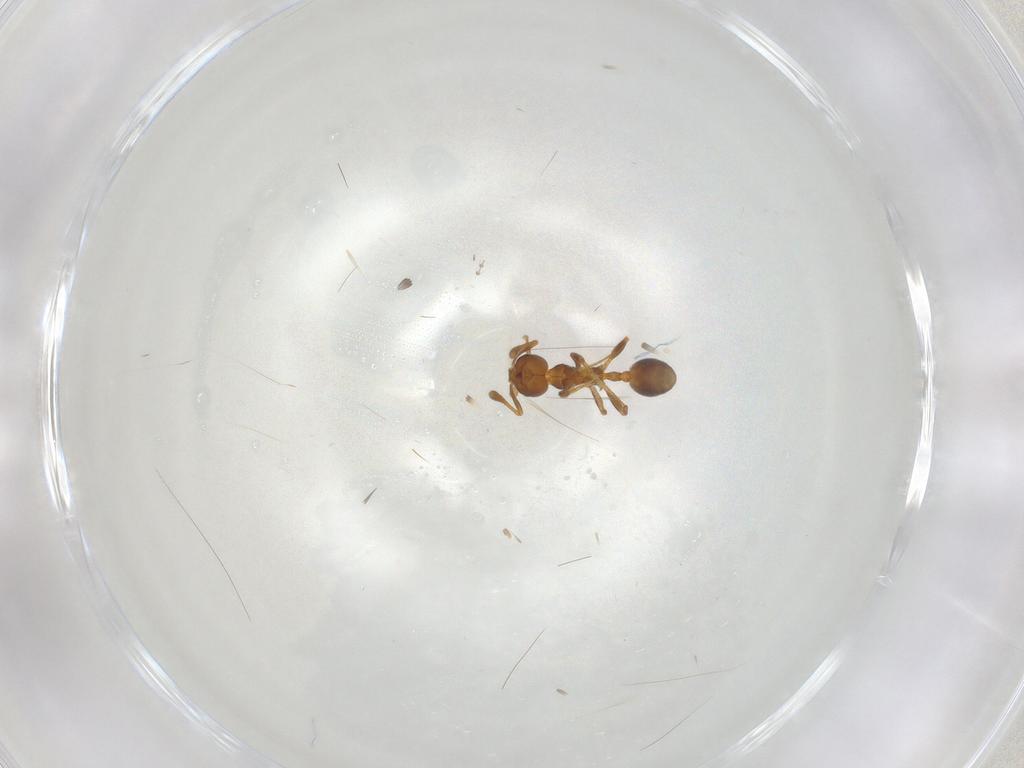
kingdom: Animalia
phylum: Arthropoda
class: Insecta
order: Hymenoptera
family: Formicidae
